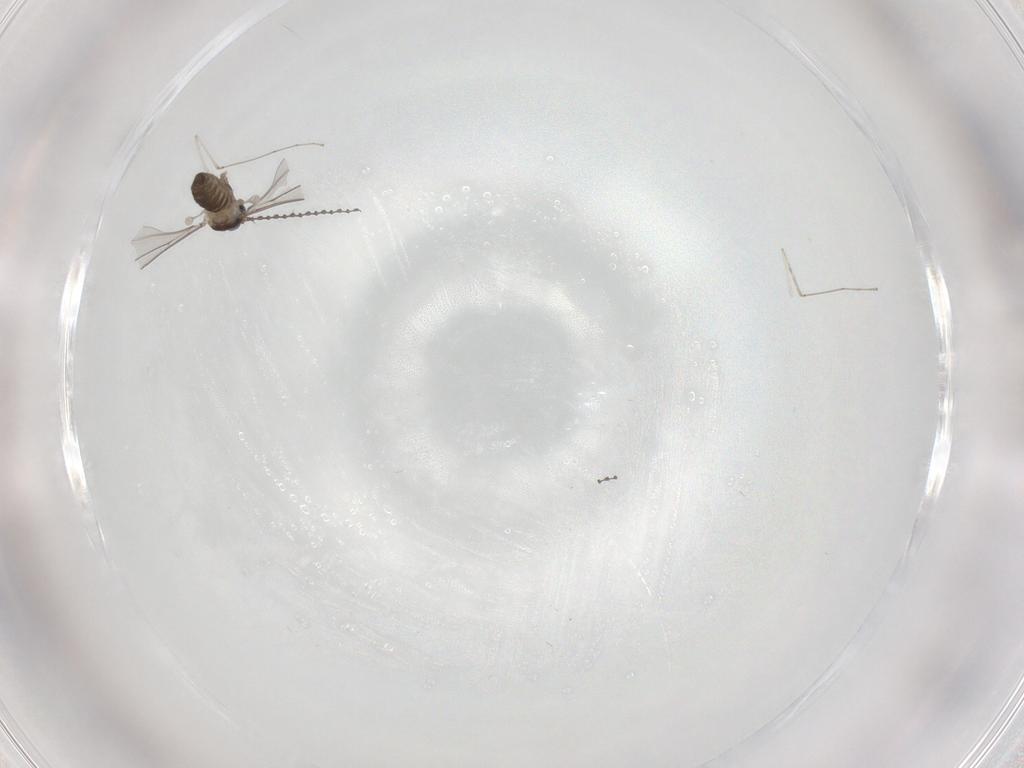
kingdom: Animalia
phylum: Arthropoda
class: Insecta
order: Diptera
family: Cecidomyiidae
